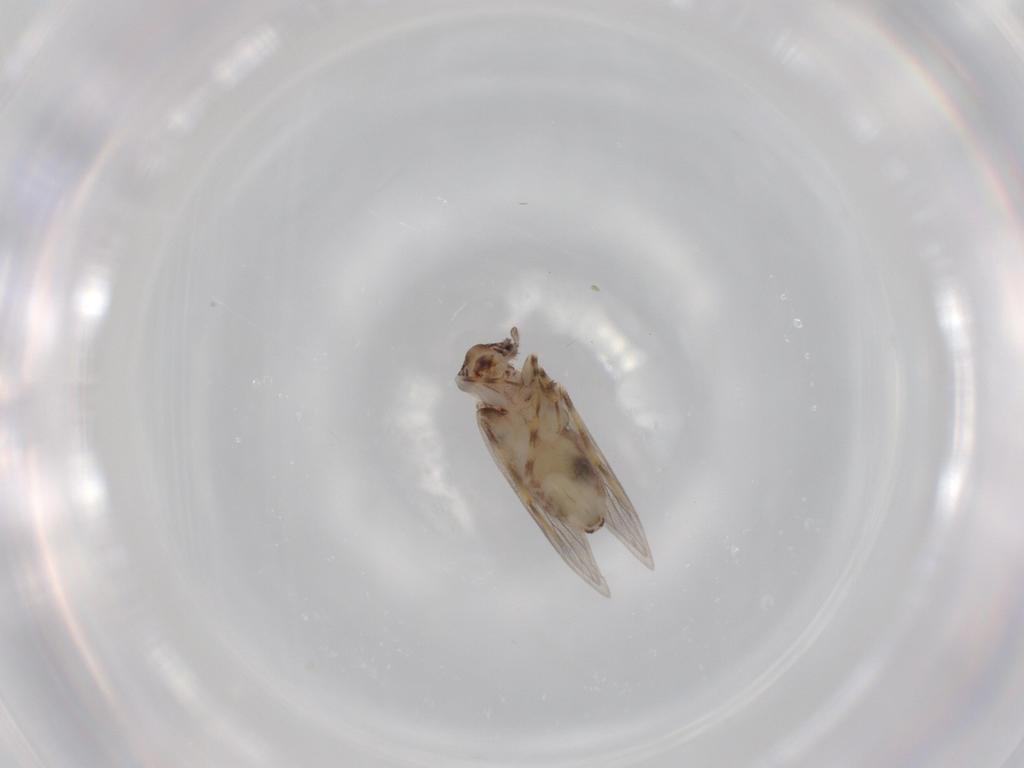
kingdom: Animalia
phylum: Arthropoda
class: Insecta
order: Psocodea
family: Lepidopsocidae
